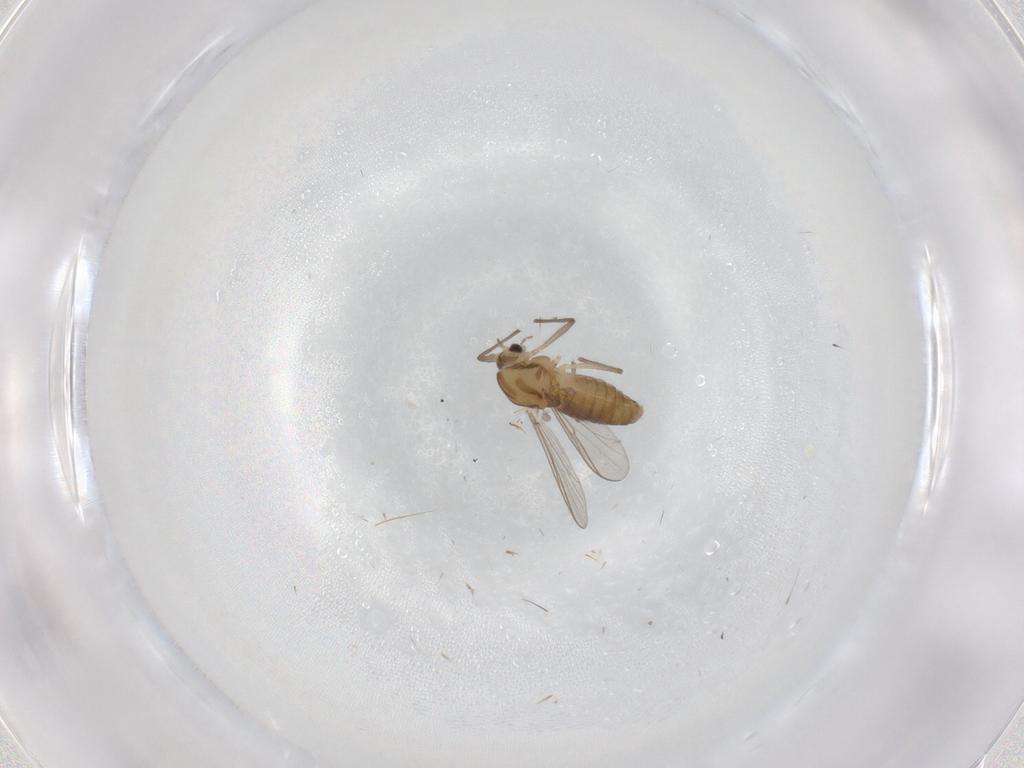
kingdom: Animalia
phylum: Arthropoda
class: Insecta
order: Diptera
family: Chironomidae
